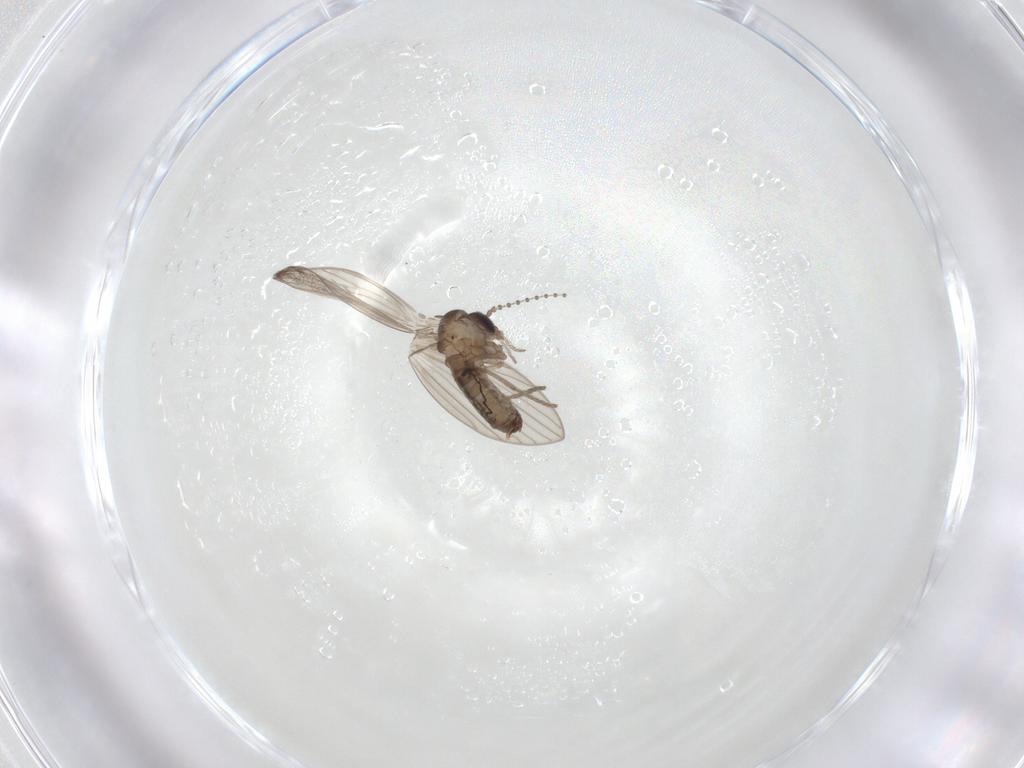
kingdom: Animalia
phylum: Arthropoda
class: Insecta
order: Diptera
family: Psychodidae
